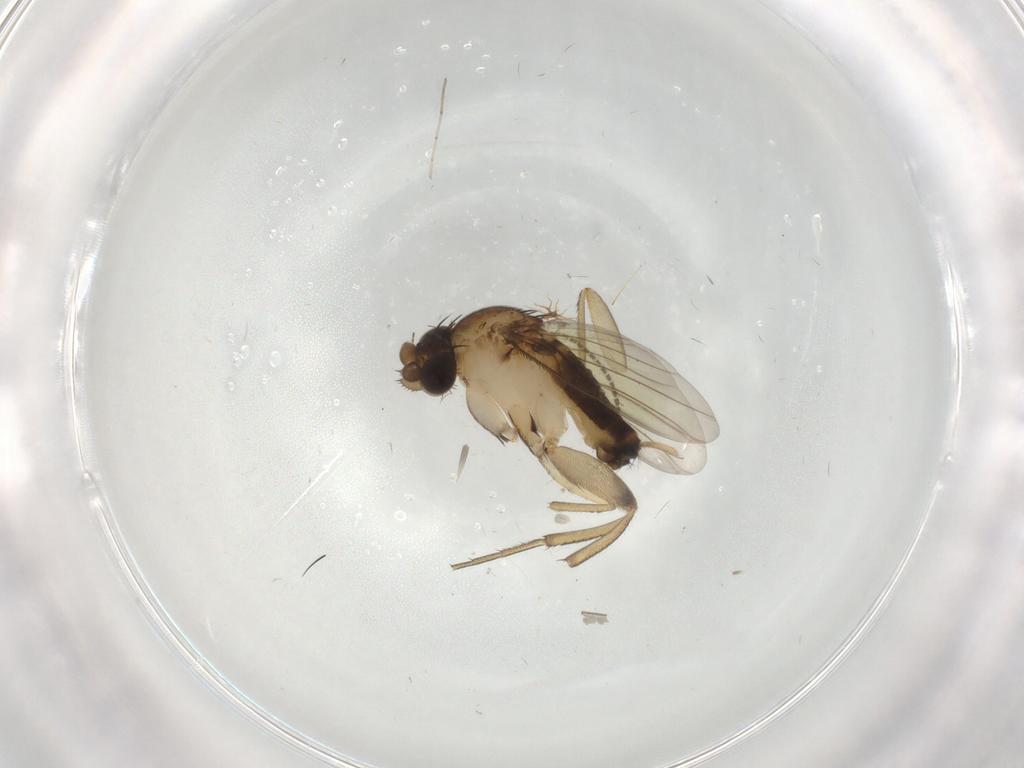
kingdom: Animalia
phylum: Arthropoda
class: Insecta
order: Diptera
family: Phoridae
